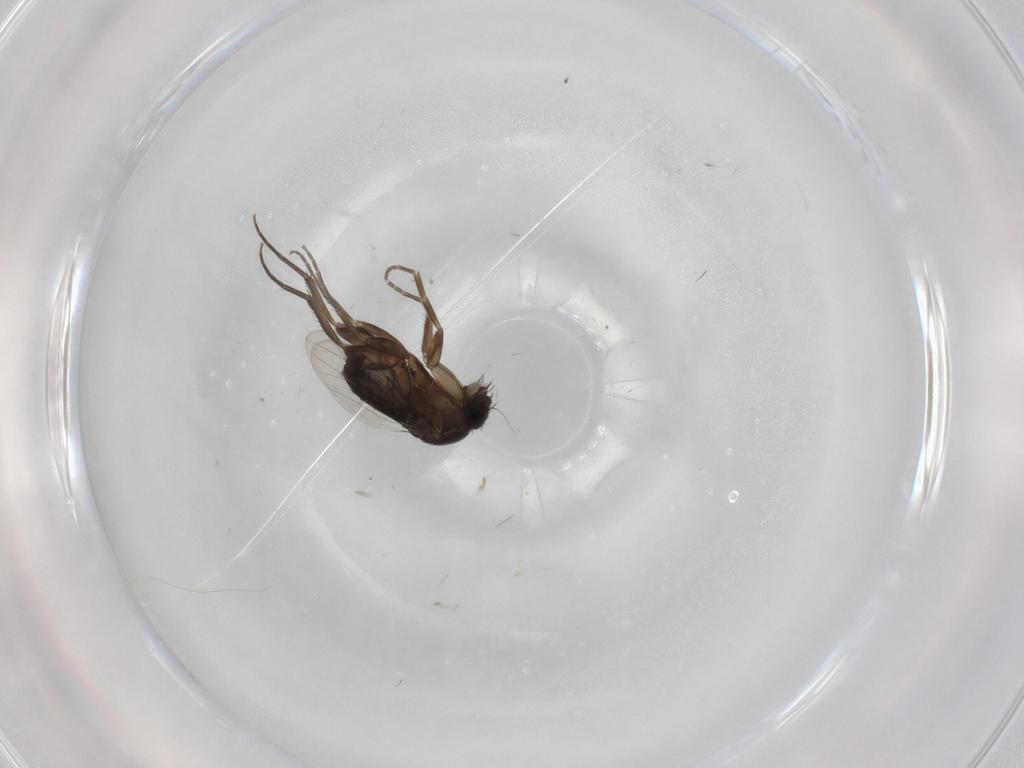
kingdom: Animalia
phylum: Arthropoda
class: Insecta
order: Diptera
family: Phoridae
